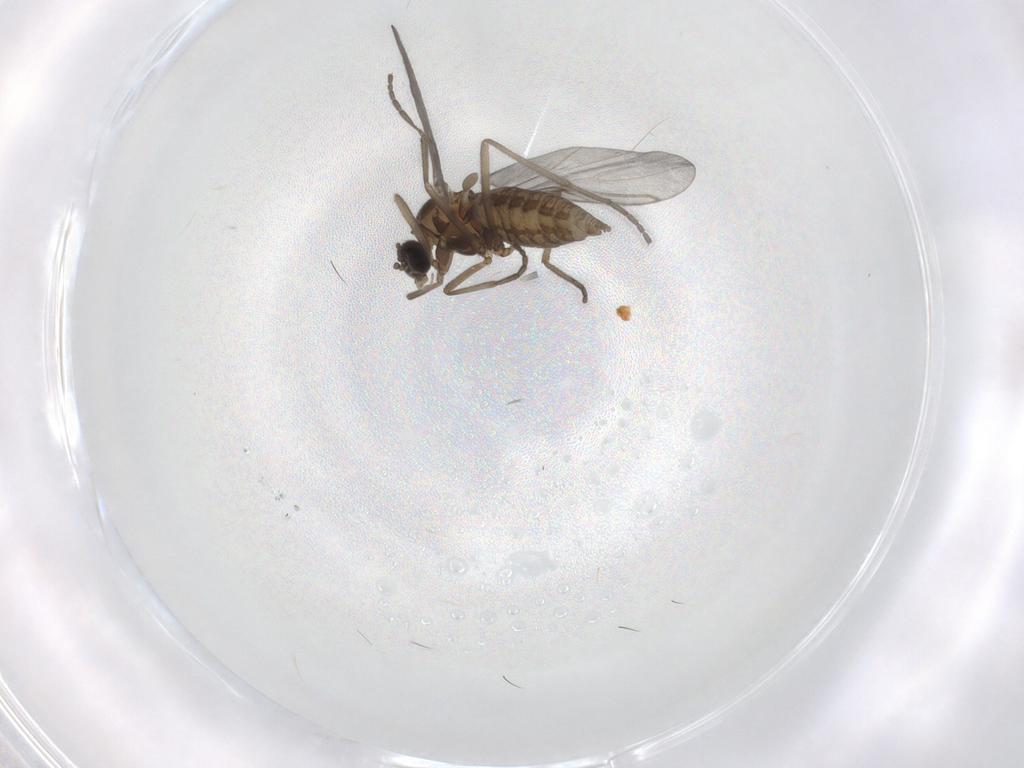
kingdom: Animalia
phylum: Arthropoda
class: Insecta
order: Diptera
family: Cecidomyiidae
